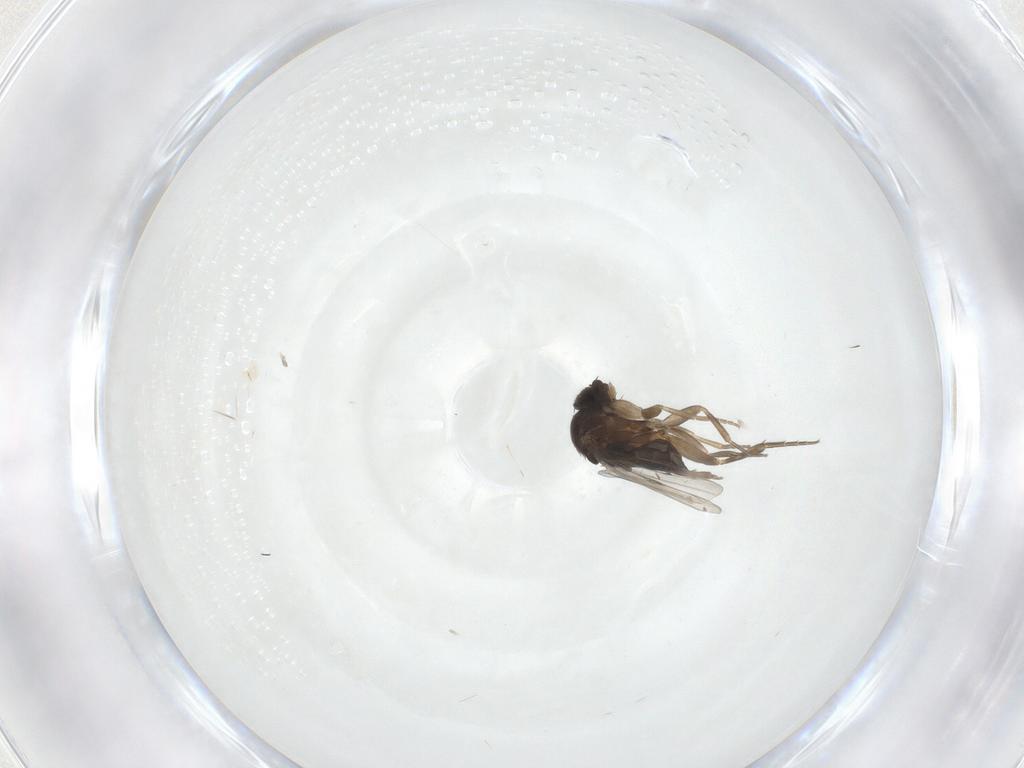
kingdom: Animalia
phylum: Arthropoda
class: Insecta
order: Diptera
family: Phoridae
